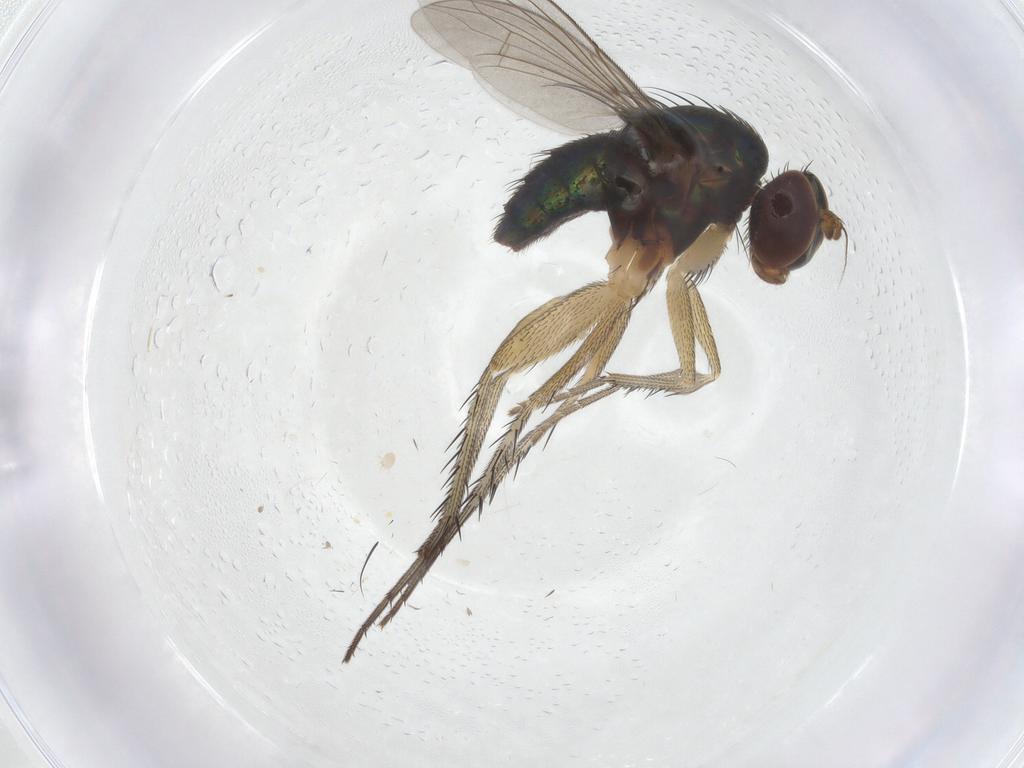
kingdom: Animalia
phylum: Arthropoda
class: Insecta
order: Diptera
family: Dolichopodidae
